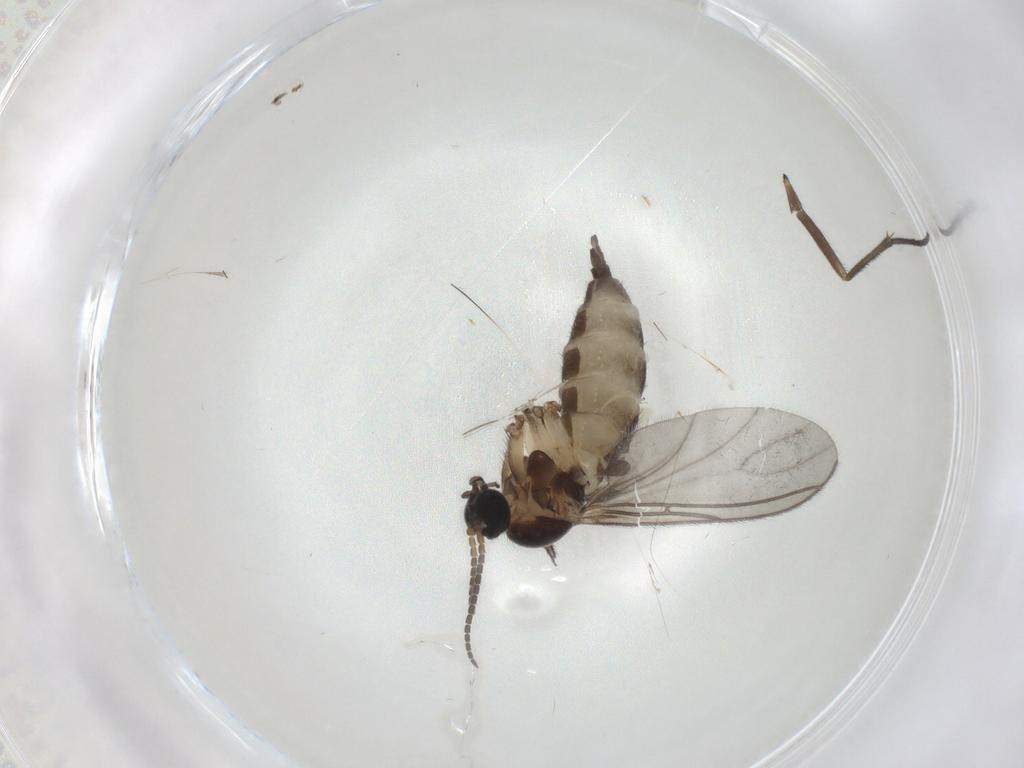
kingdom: Animalia
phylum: Arthropoda
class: Insecta
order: Diptera
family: Sciaridae
